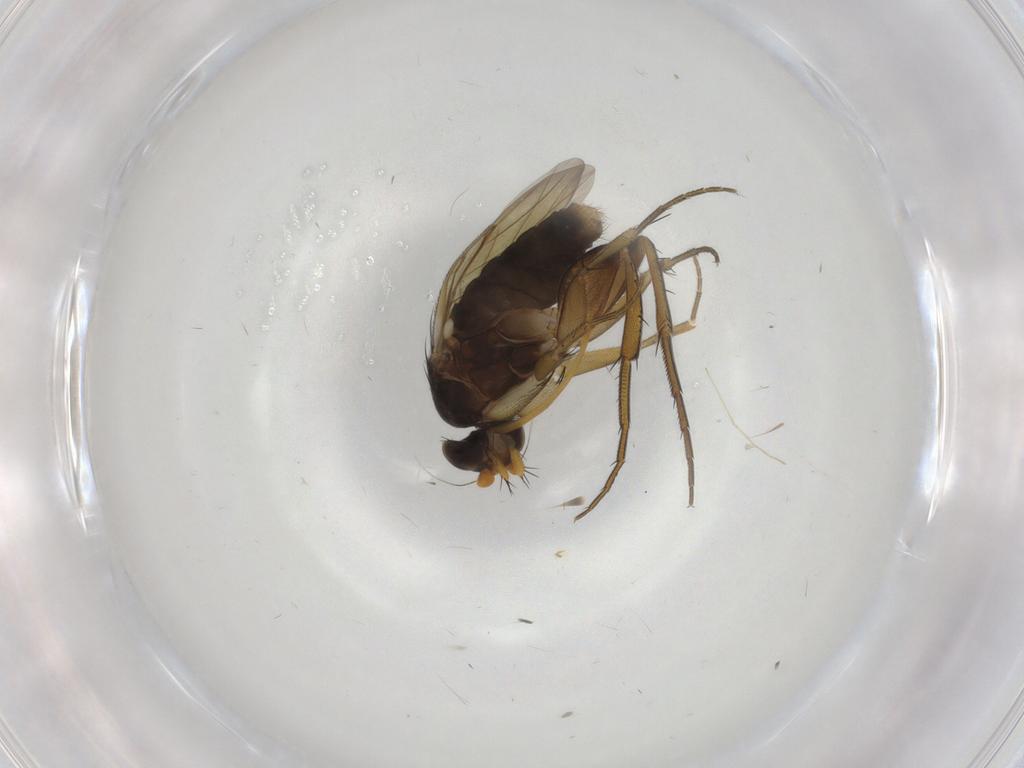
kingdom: Animalia
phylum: Arthropoda
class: Insecta
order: Diptera
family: Phoridae
